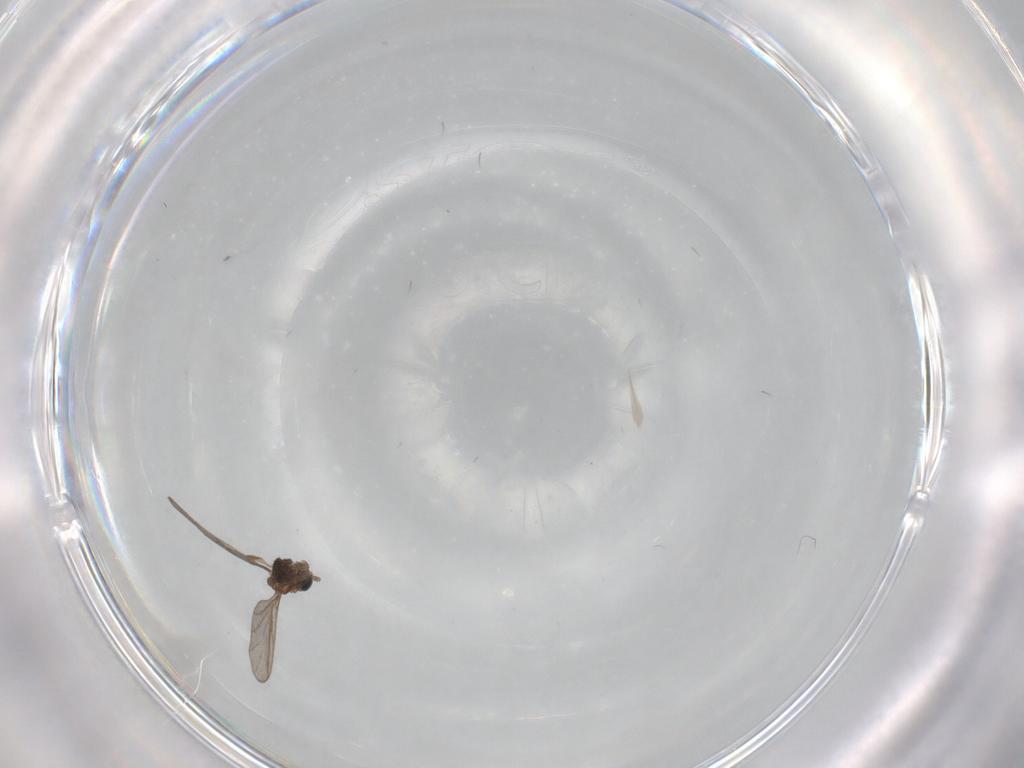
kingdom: Animalia
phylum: Arthropoda
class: Insecta
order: Diptera
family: Sciaridae
